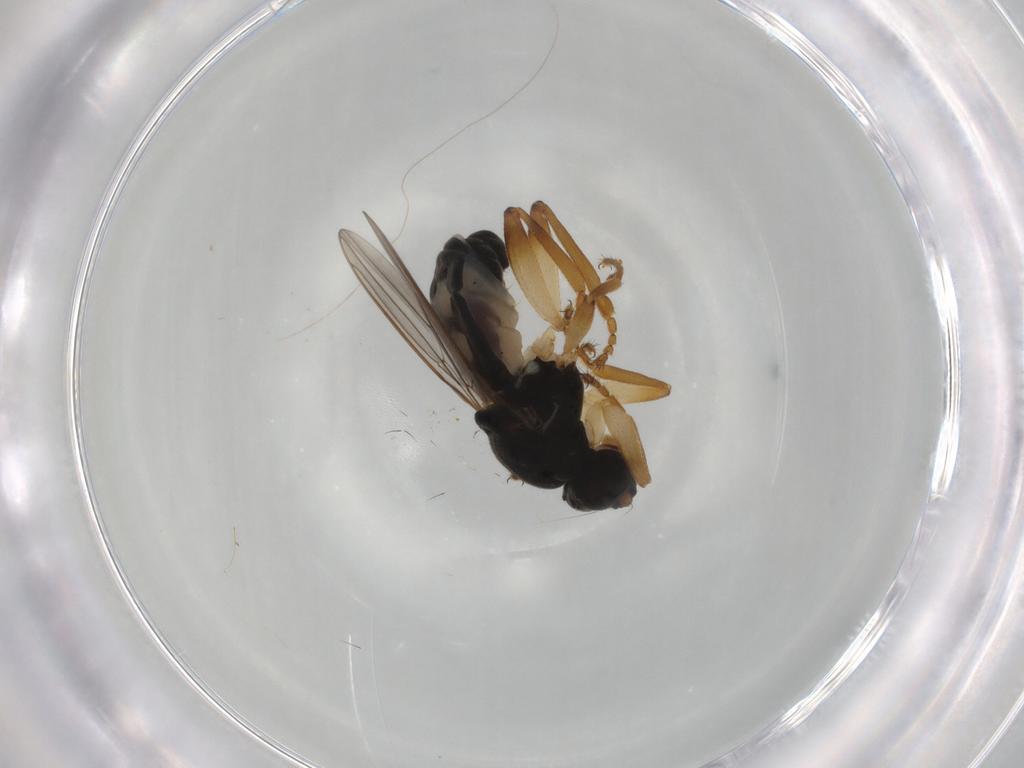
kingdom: Animalia
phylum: Arthropoda
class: Insecta
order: Diptera
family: Sphaeroceridae
